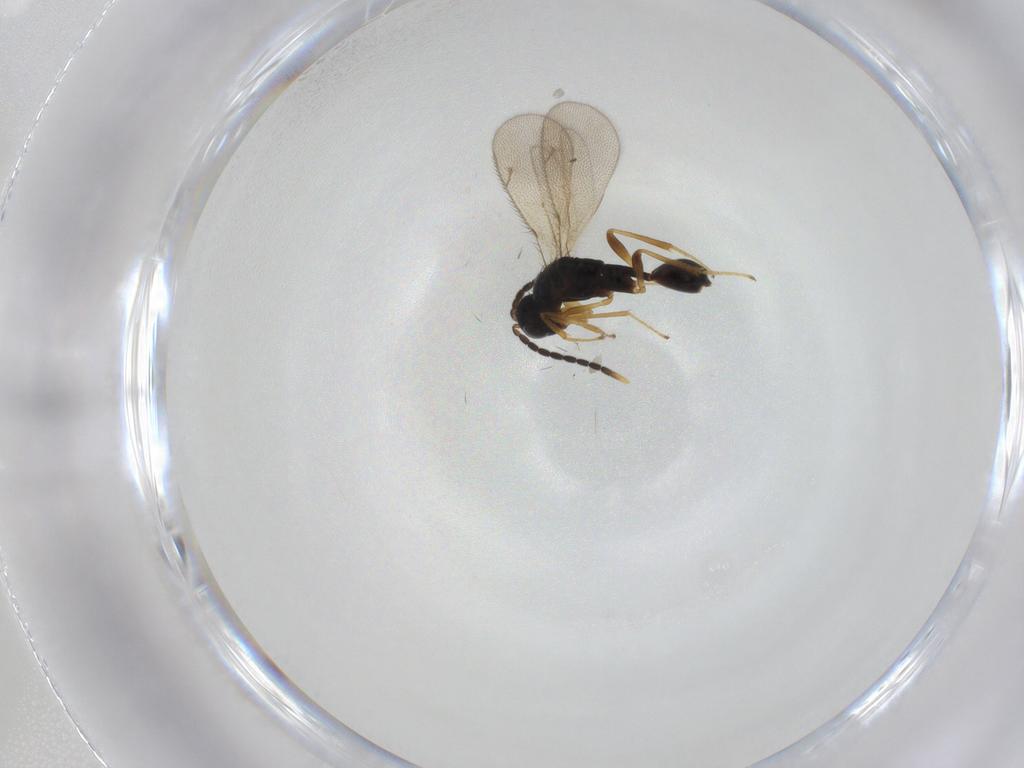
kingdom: Animalia
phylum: Arthropoda
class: Insecta
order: Hymenoptera
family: Diparidae
